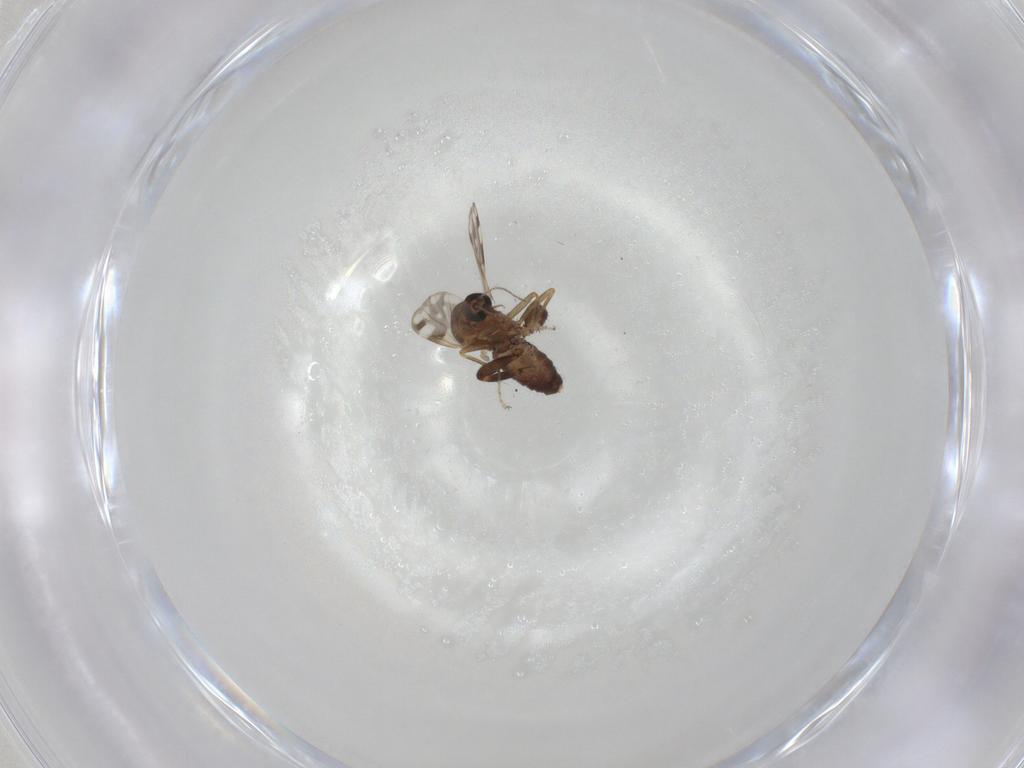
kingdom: Animalia
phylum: Arthropoda
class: Insecta
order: Diptera
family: Ceratopogonidae
